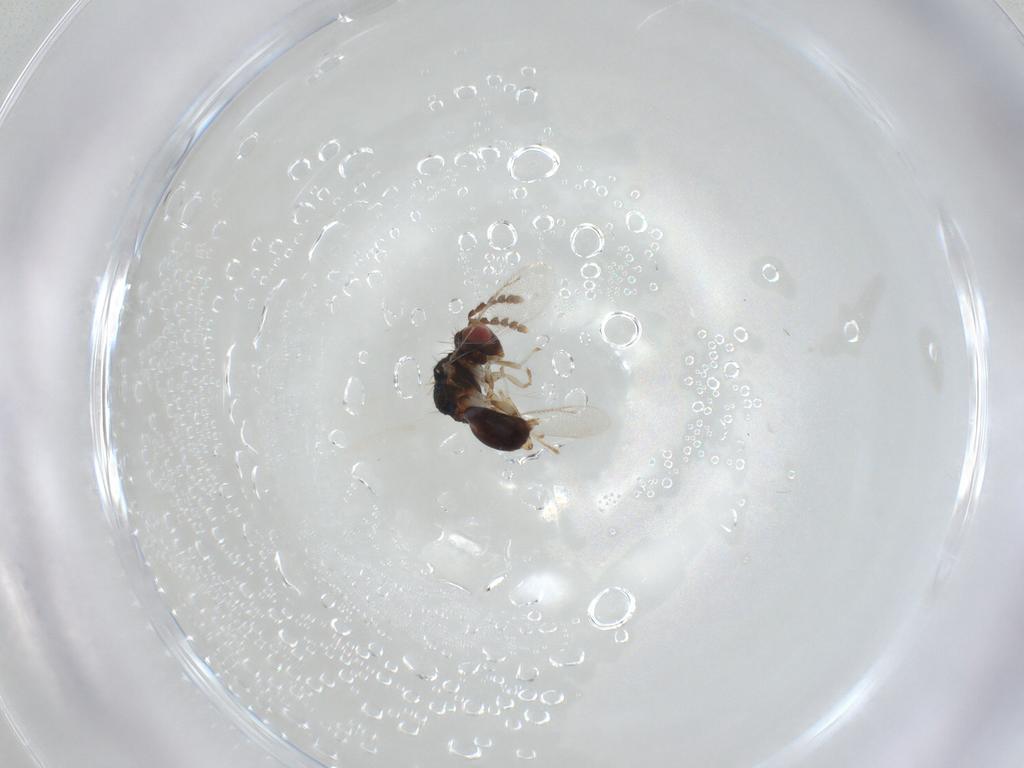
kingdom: Animalia
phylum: Arthropoda
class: Insecta
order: Hymenoptera
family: Eulophidae
